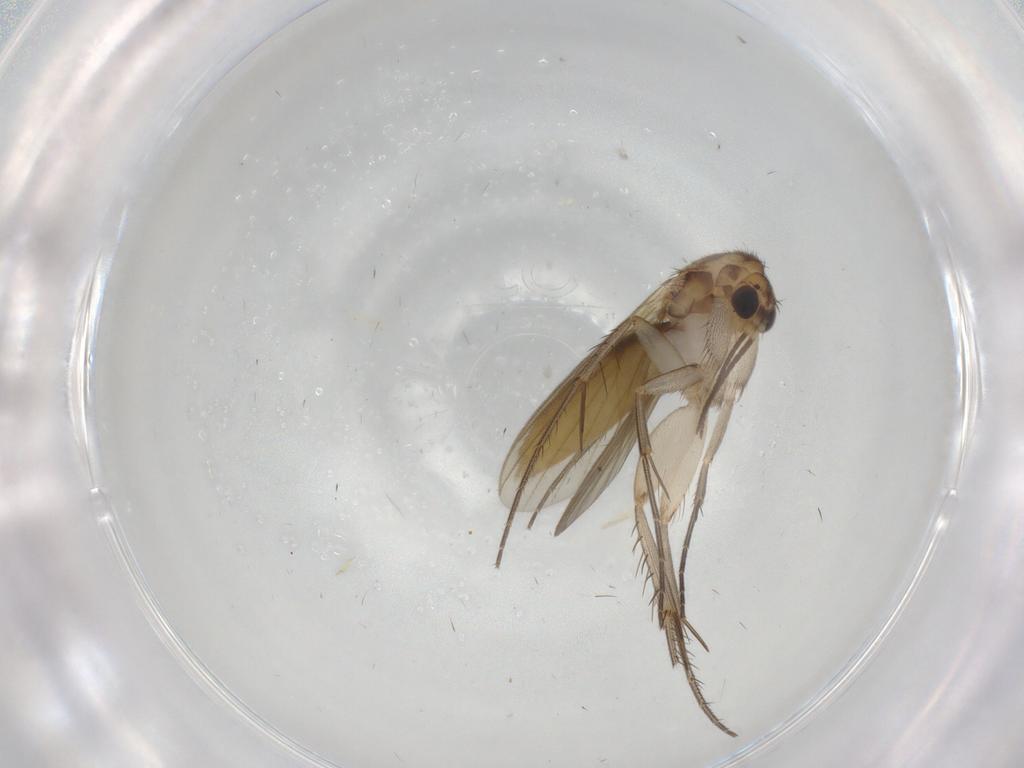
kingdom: Animalia
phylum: Arthropoda
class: Insecta
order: Diptera
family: Mycetophilidae
